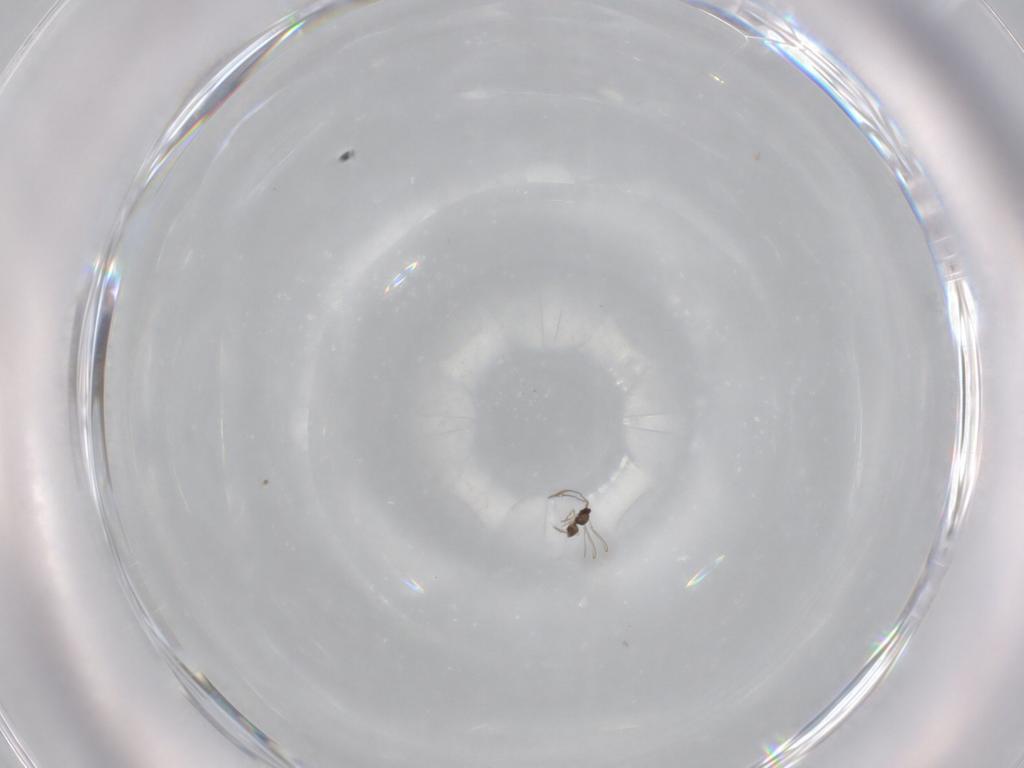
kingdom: Animalia
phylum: Arthropoda
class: Insecta
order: Hymenoptera
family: Mymaridae
